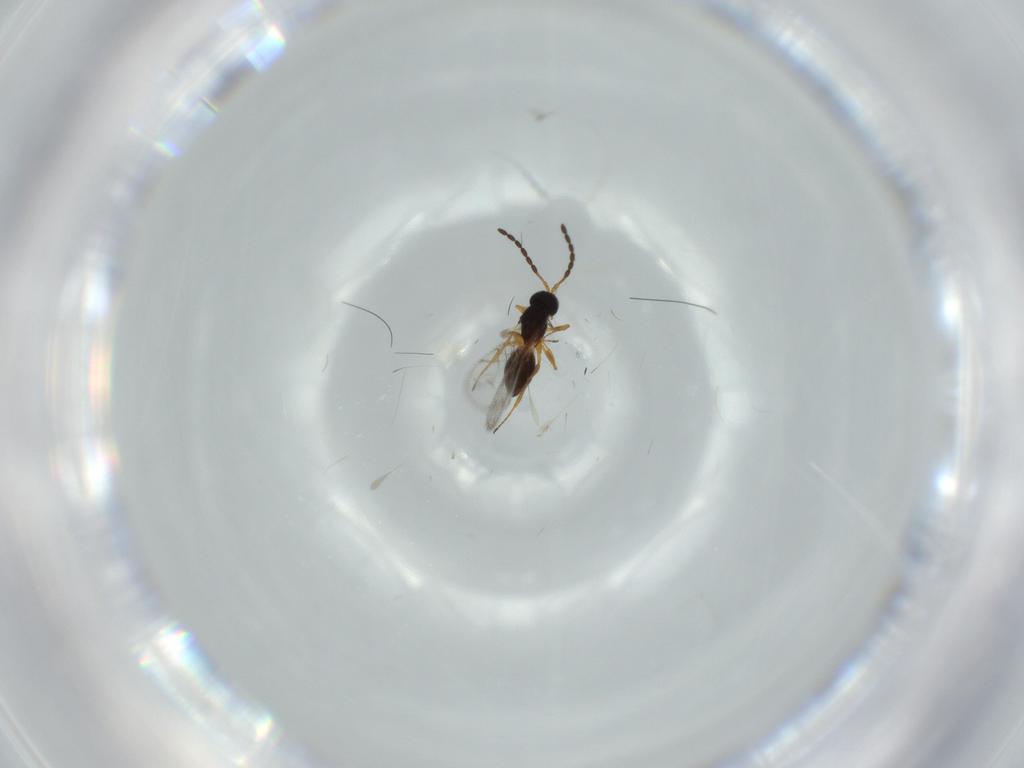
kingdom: Animalia
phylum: Arthropoda
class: Insecta
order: Hymenoptera
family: Figitidae
